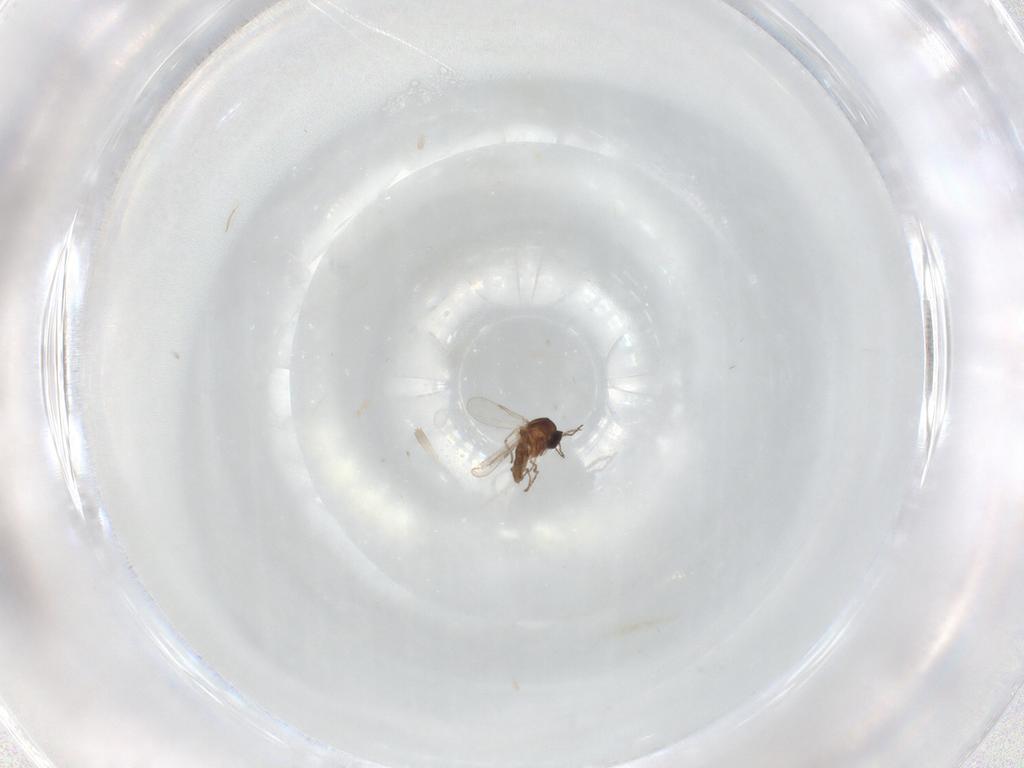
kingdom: Animalia
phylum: Arthropoda
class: Insecta
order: Diptera
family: Ceratopogonidae
